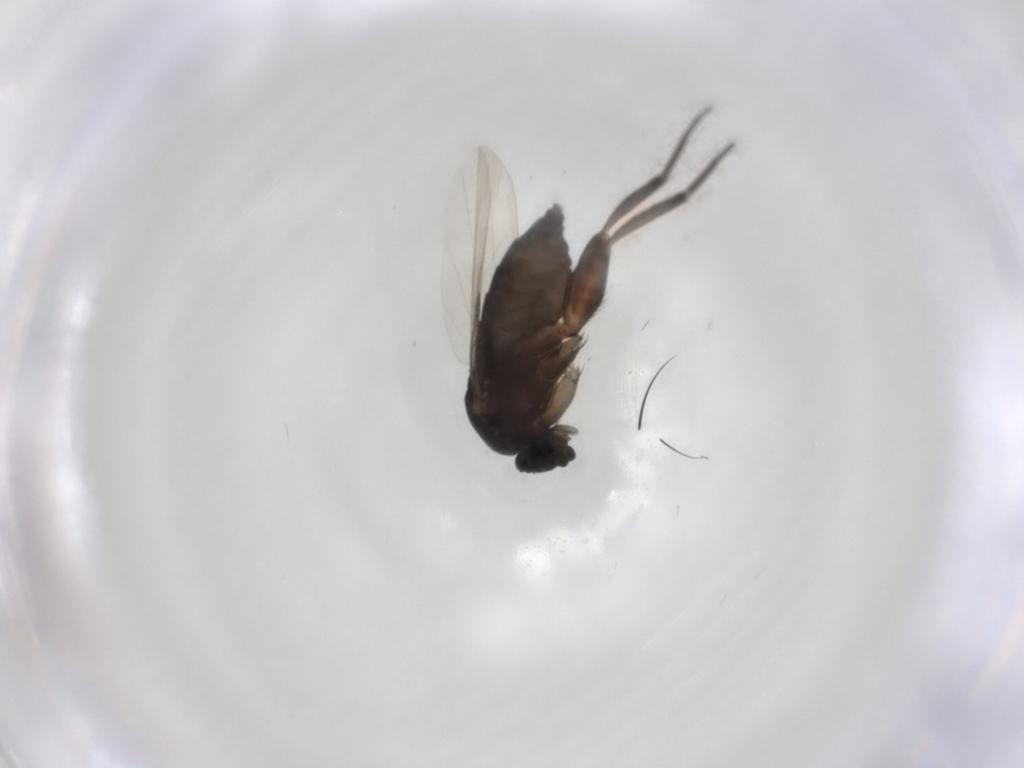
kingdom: Animalia
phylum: Arthropoda
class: Insecta
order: Diptera
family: Phoridae
